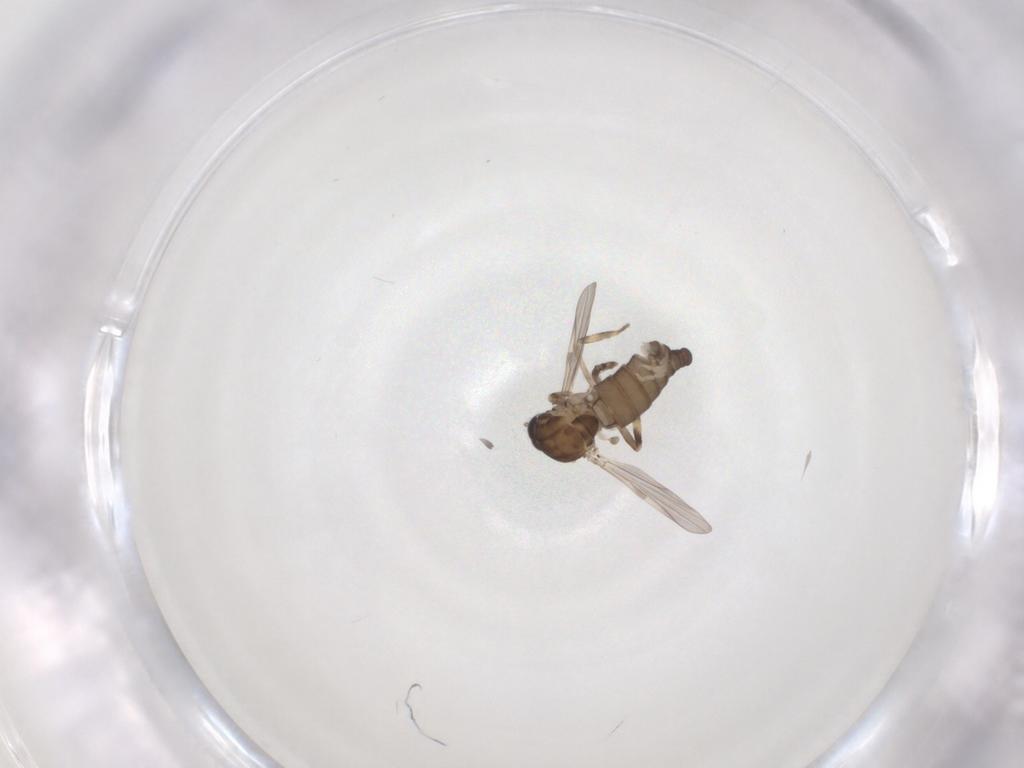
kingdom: Animalia
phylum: Arthropoda
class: Insecta
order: Diptera
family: Ceratopogonidae
